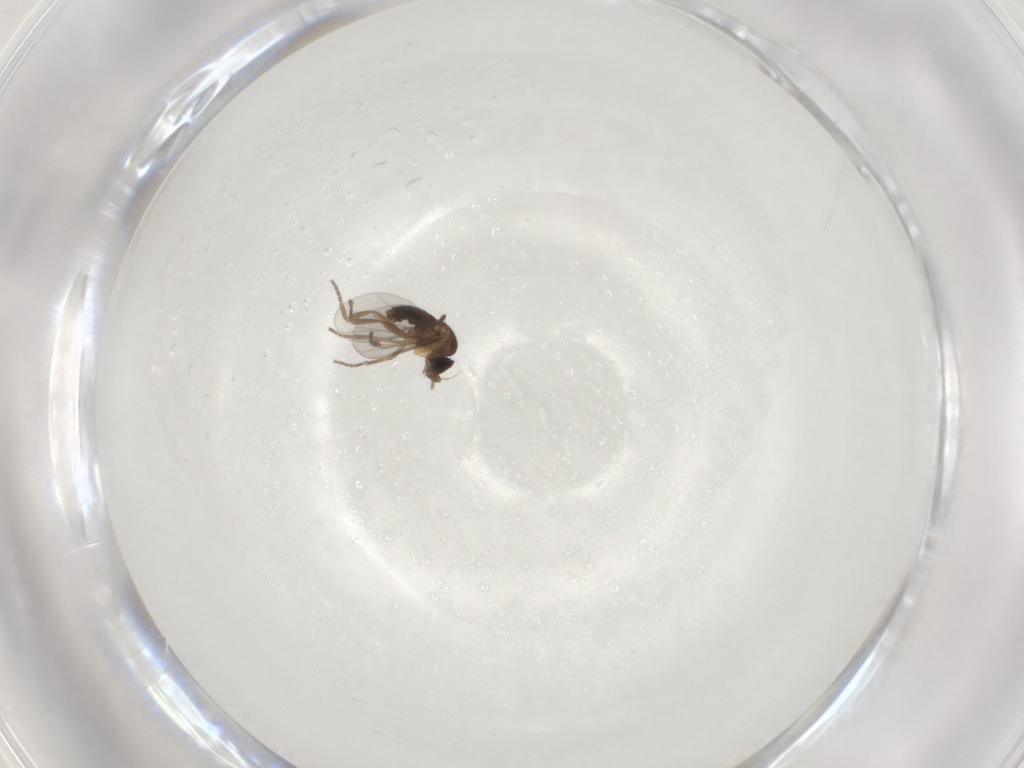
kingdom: Animalia
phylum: Arthropoda
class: Insecta
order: Diptera
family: Phoridae
